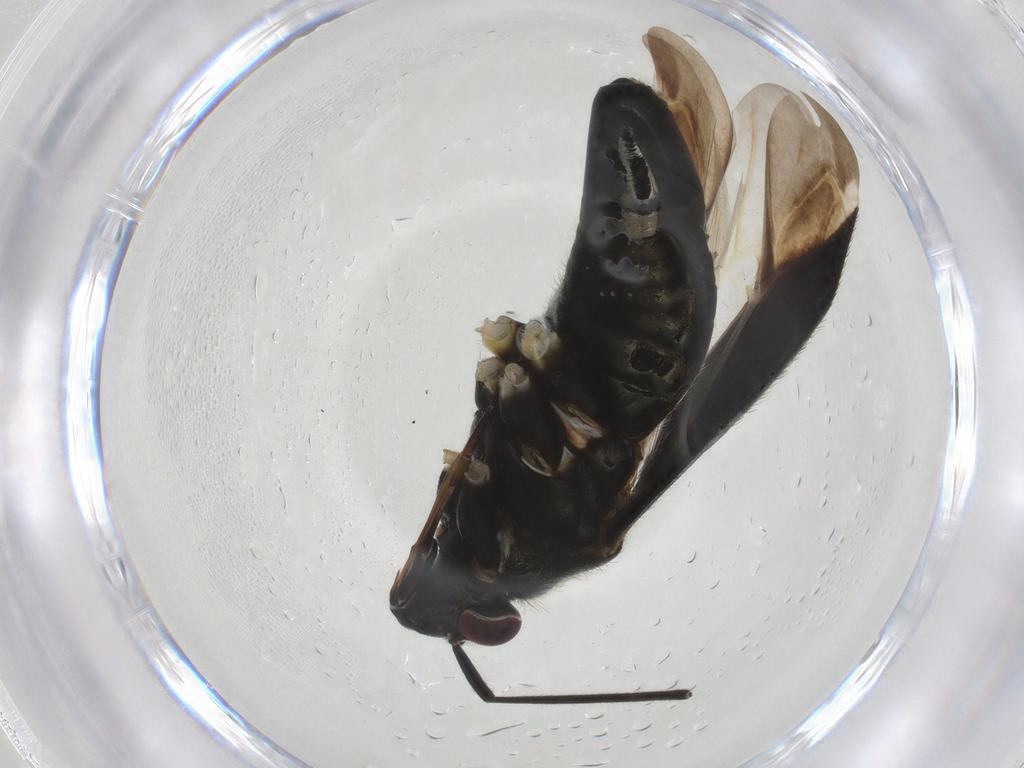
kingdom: Animalia
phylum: Arthropoda
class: Insecta
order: Hemiptera
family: Miridae
